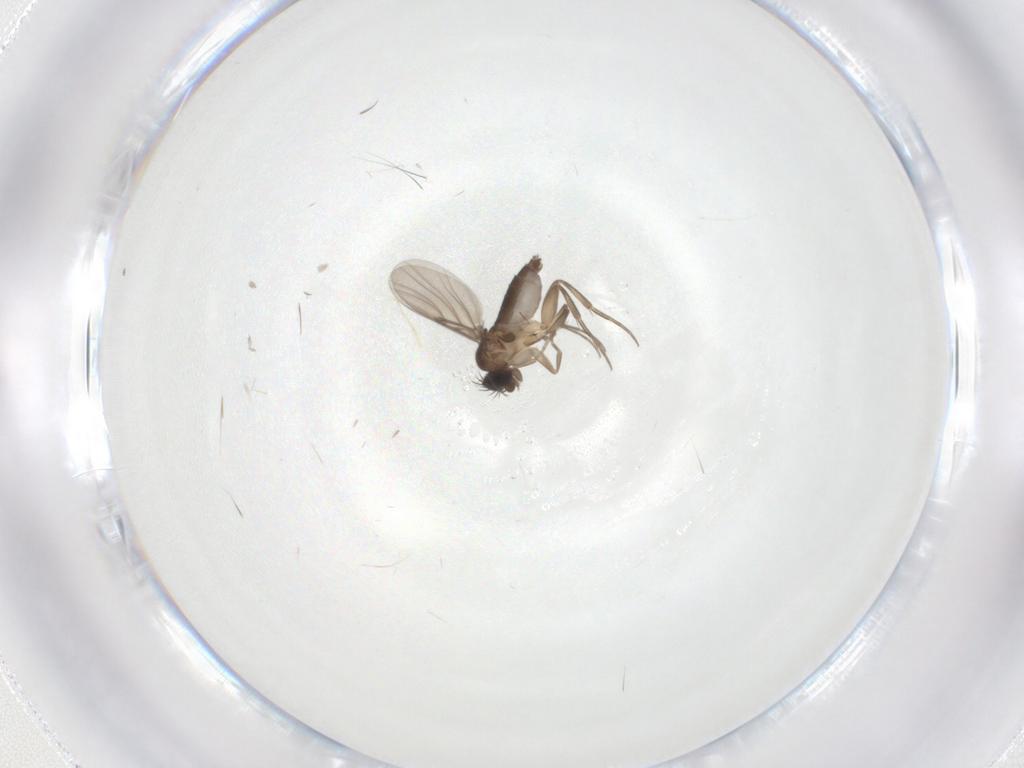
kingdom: Animalia
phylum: Arthropoda
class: Insecta
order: Diptera
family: Phoridae
